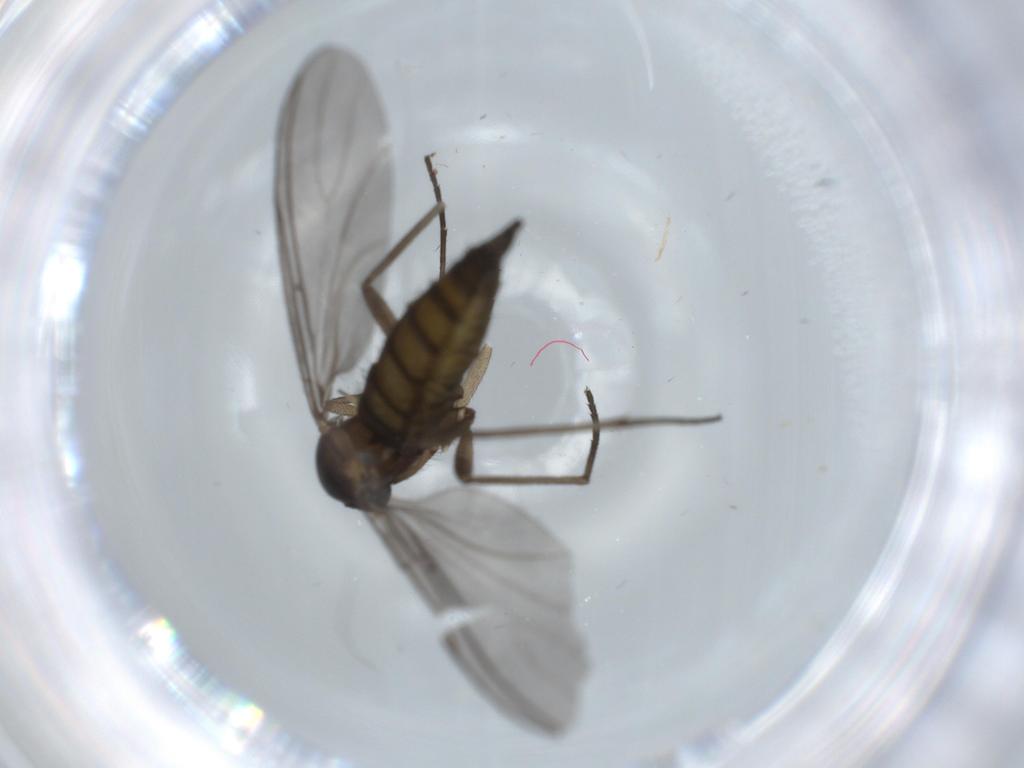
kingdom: Animalia
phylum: Arthropoda
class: Insecta
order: Diptera
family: Sciaridae
